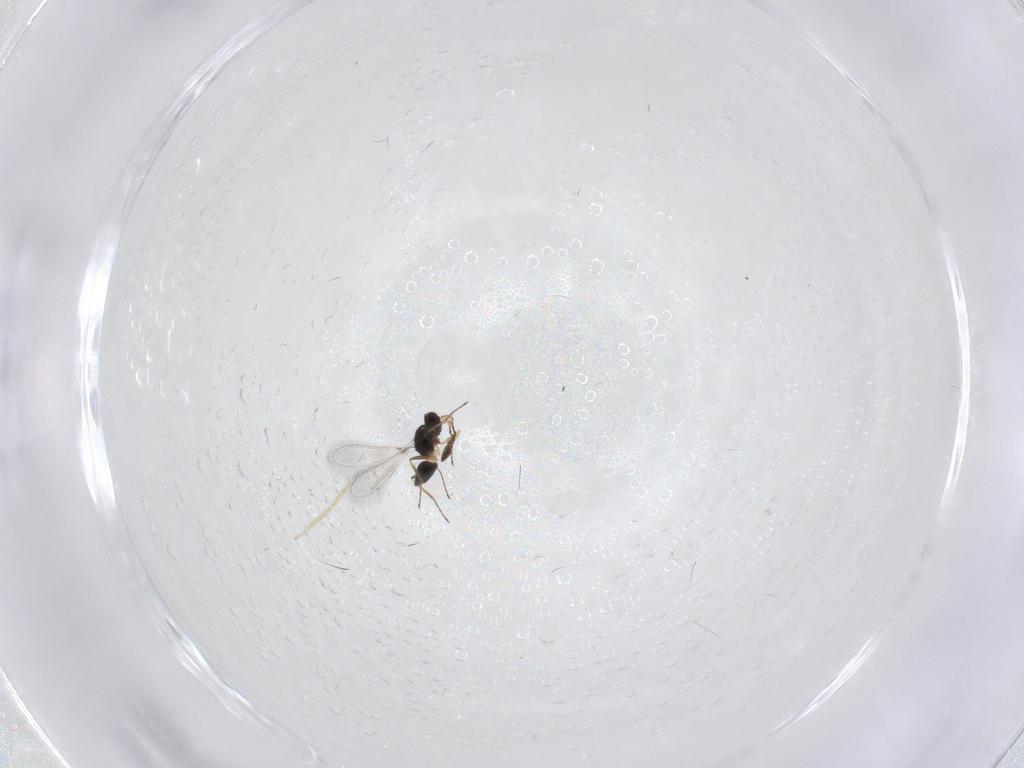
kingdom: Animalia
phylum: Arthropoda
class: Insecta
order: Diptera
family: Chironomidae
